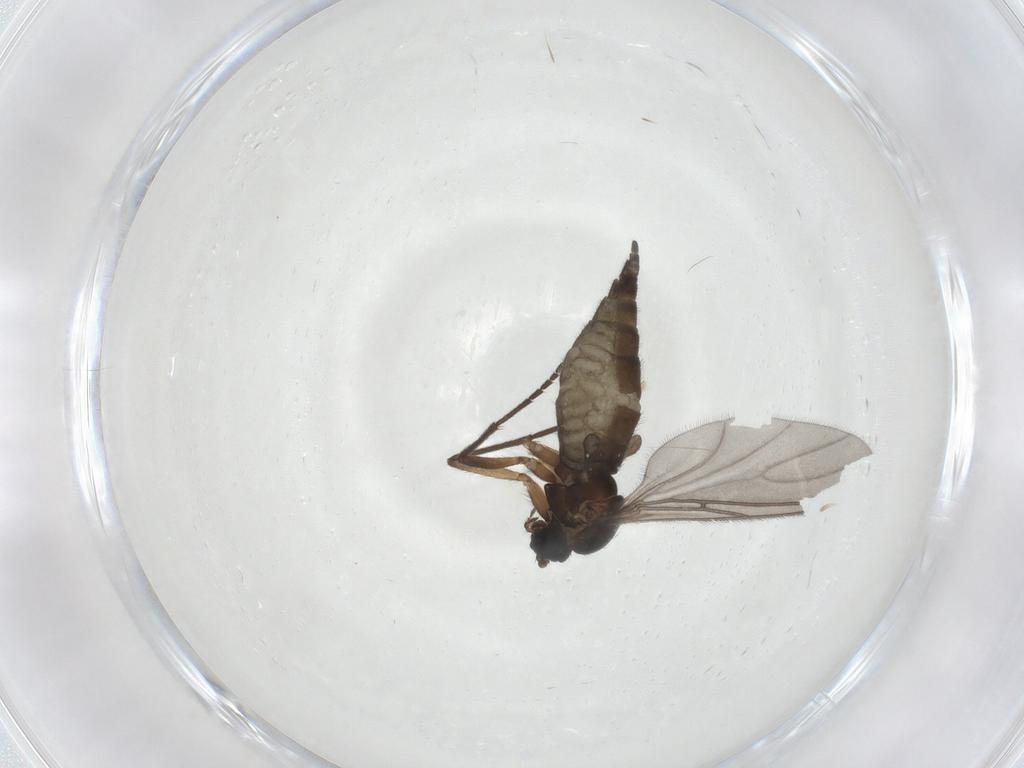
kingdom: Animalia
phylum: Arthropoda
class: Insecta
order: Diptera
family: Sciaridae
